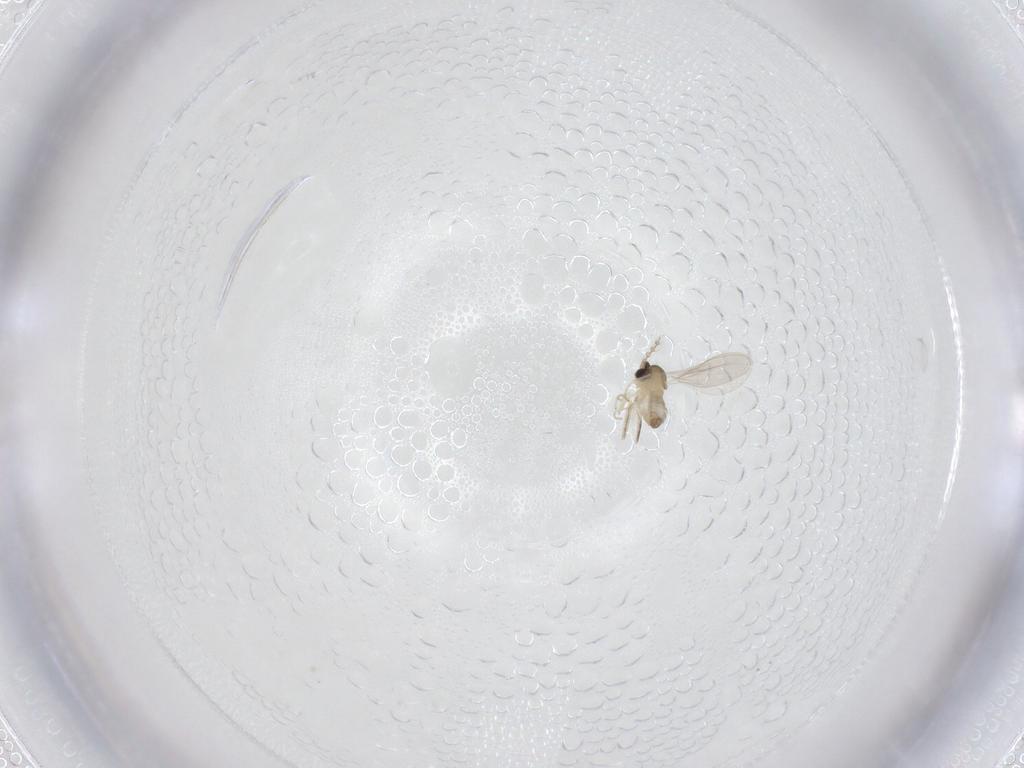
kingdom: Animalia
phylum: Arthropoda
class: Insecta
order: Diptera
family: Cecidomyiidae
